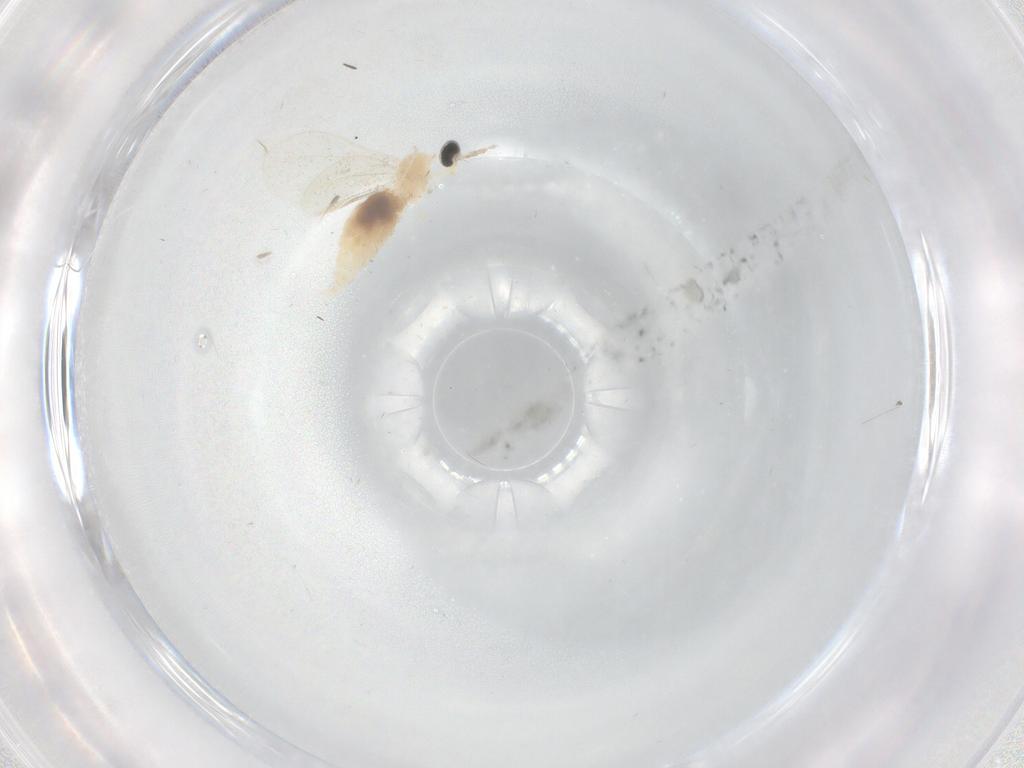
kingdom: Animalia
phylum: Arthropoda
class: Insecta
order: Diptera
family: Cecidomyiidae
